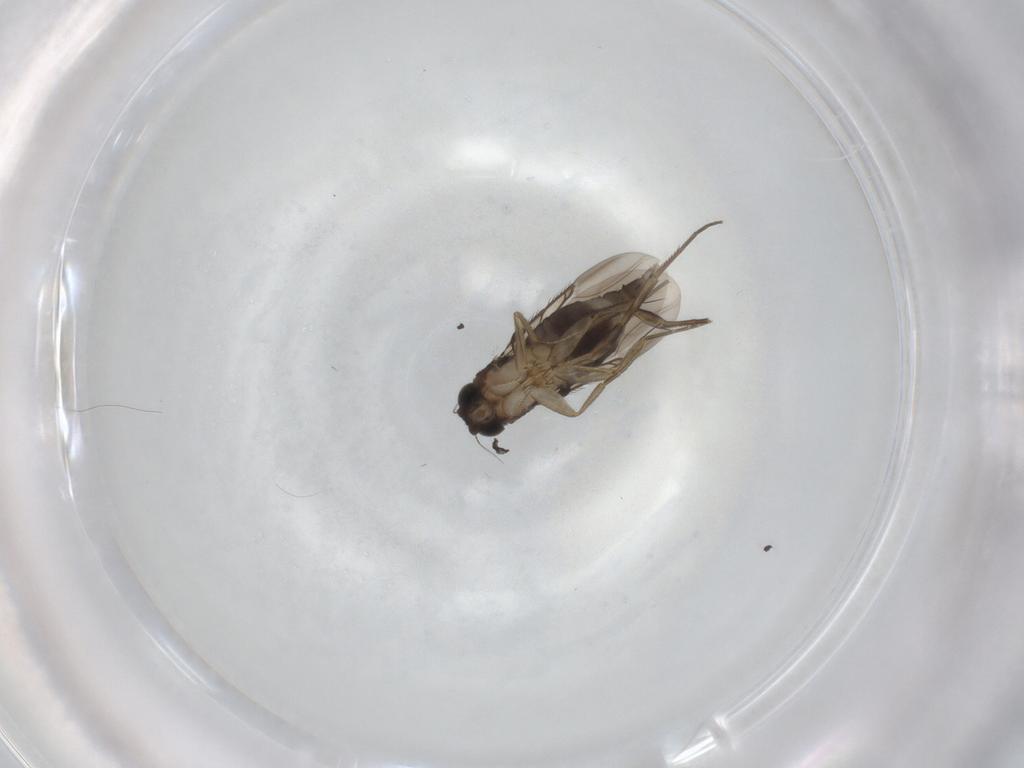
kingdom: Animalia
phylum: Arthropoda
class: Insecta
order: Diptera
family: Phoridae
